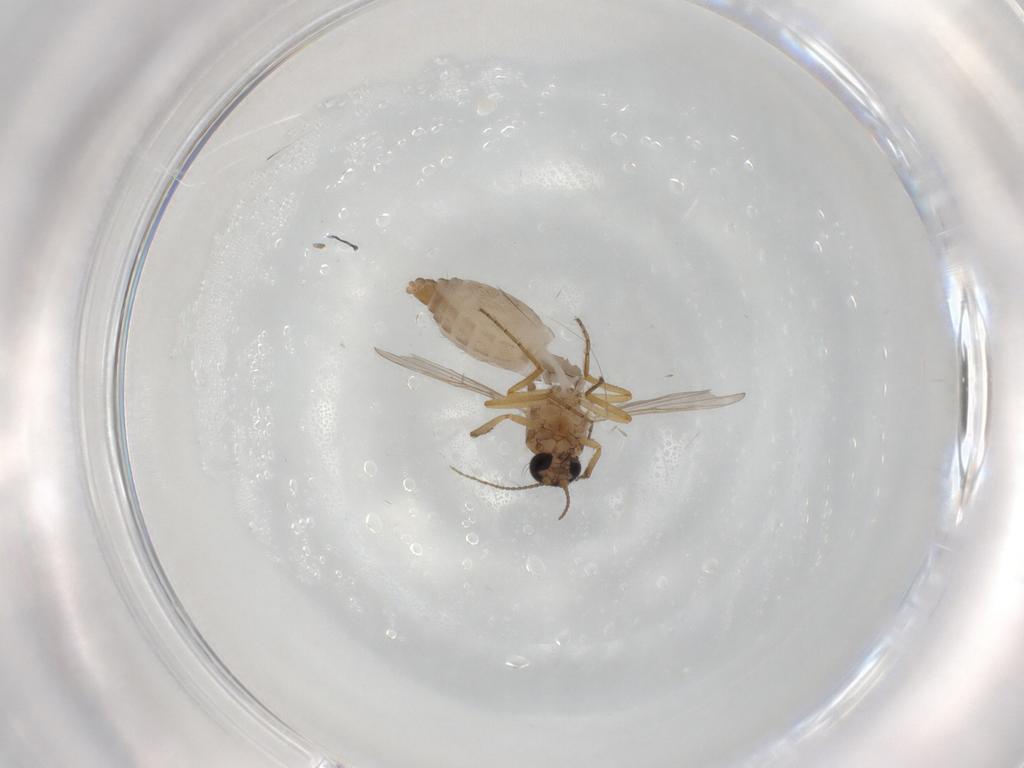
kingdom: Animalia
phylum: Arthropoda
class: Insecta
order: Diptera
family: Ceratopogonidae
